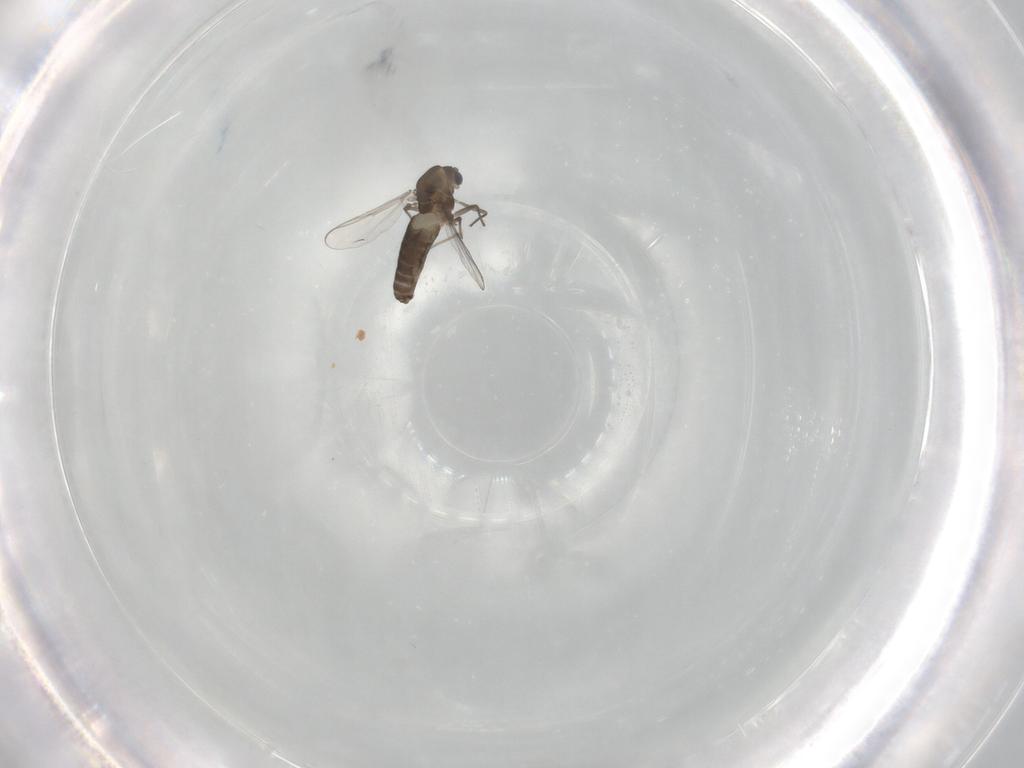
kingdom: Animalia
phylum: Arthropoda
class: Insecta
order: Diptera
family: Chironomidae
